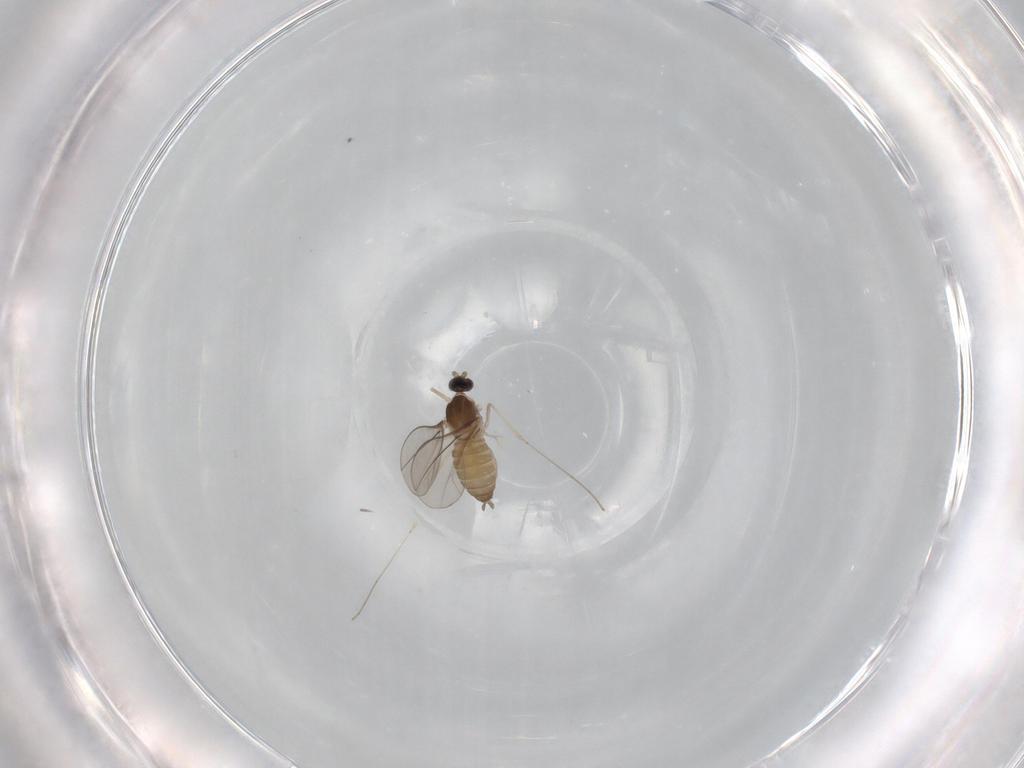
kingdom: Animalia
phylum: Arthropoda
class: Insecta
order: Diptera
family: Cecidomyiidae
